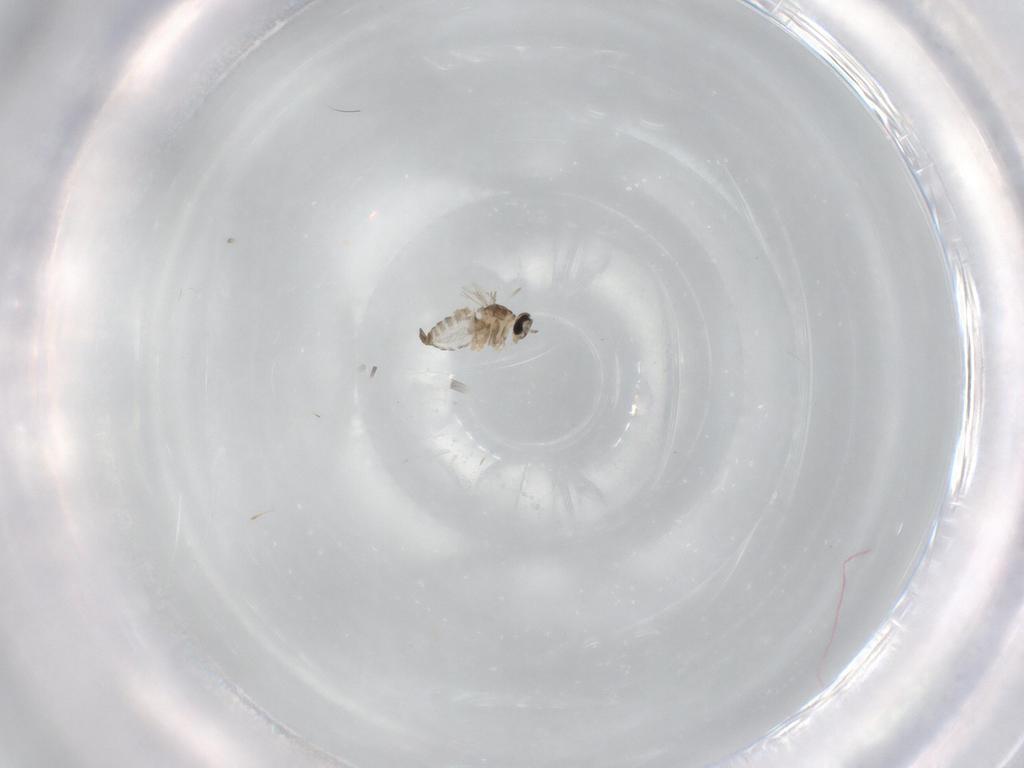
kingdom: Animalia
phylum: Arthropoda
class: Insecta
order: Diptera
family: Cecidomyiidae
